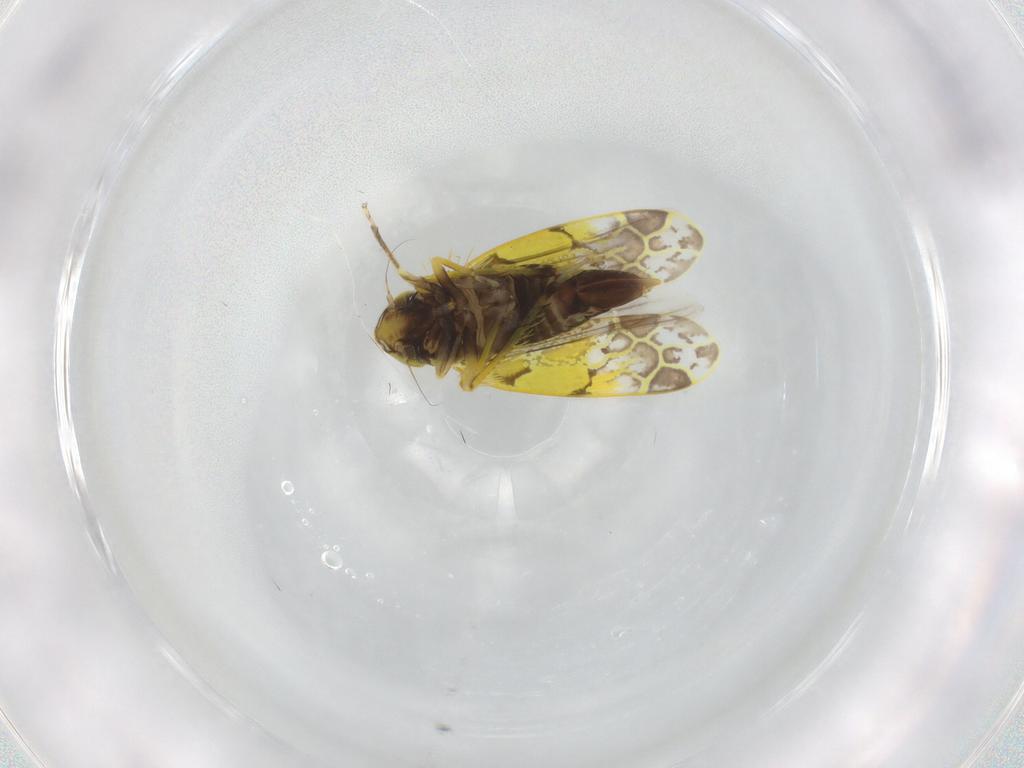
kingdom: Animalia
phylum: Arthropoda
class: Insecta
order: Hemiptera
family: Cicadellidae
